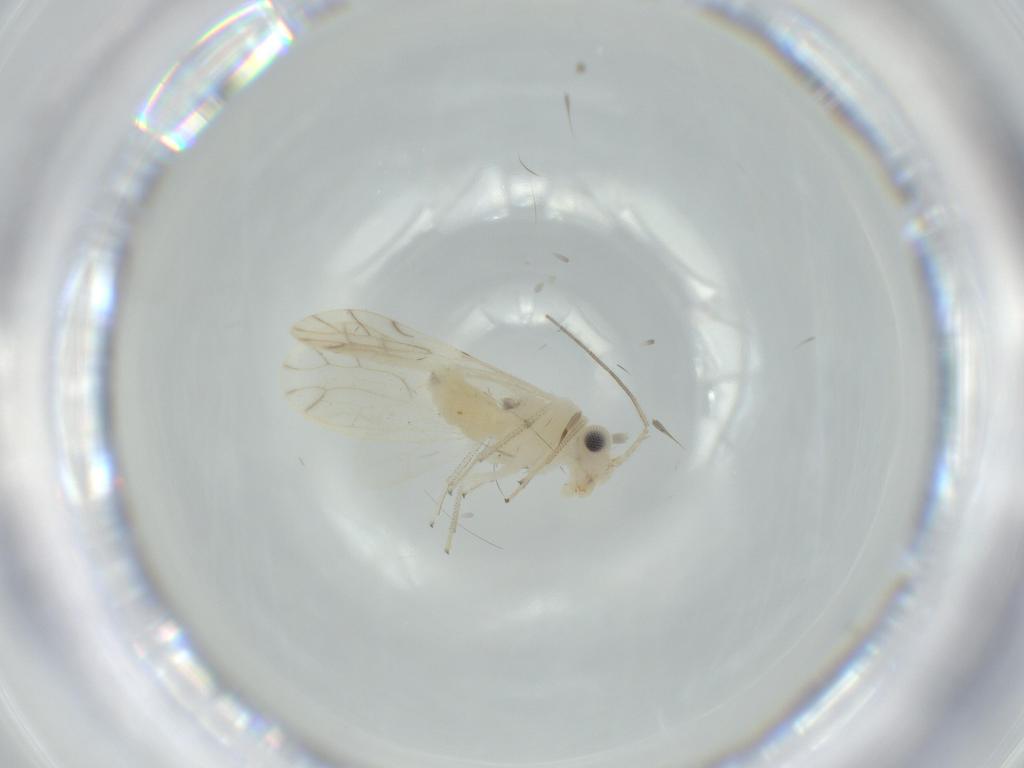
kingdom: Animalia
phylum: Arthropoda
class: Insecta
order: Psocodea
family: Caeciliusidae
